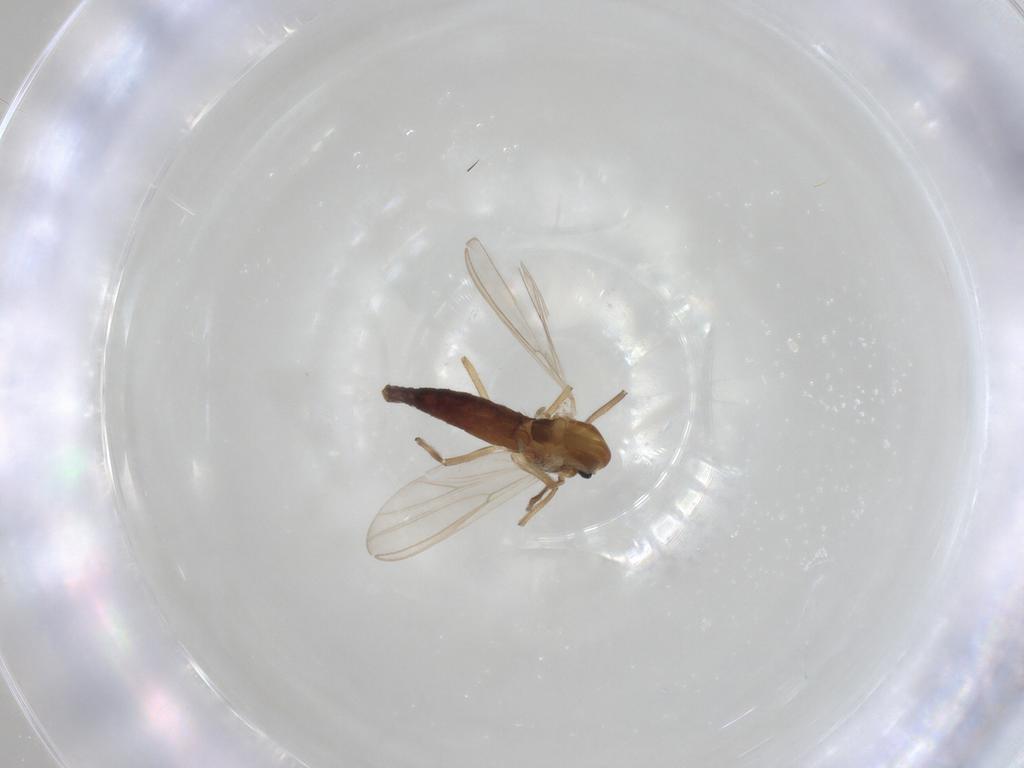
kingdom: Animalia
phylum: Arthropoda
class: Insecta
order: Diptera
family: Chironomidae
